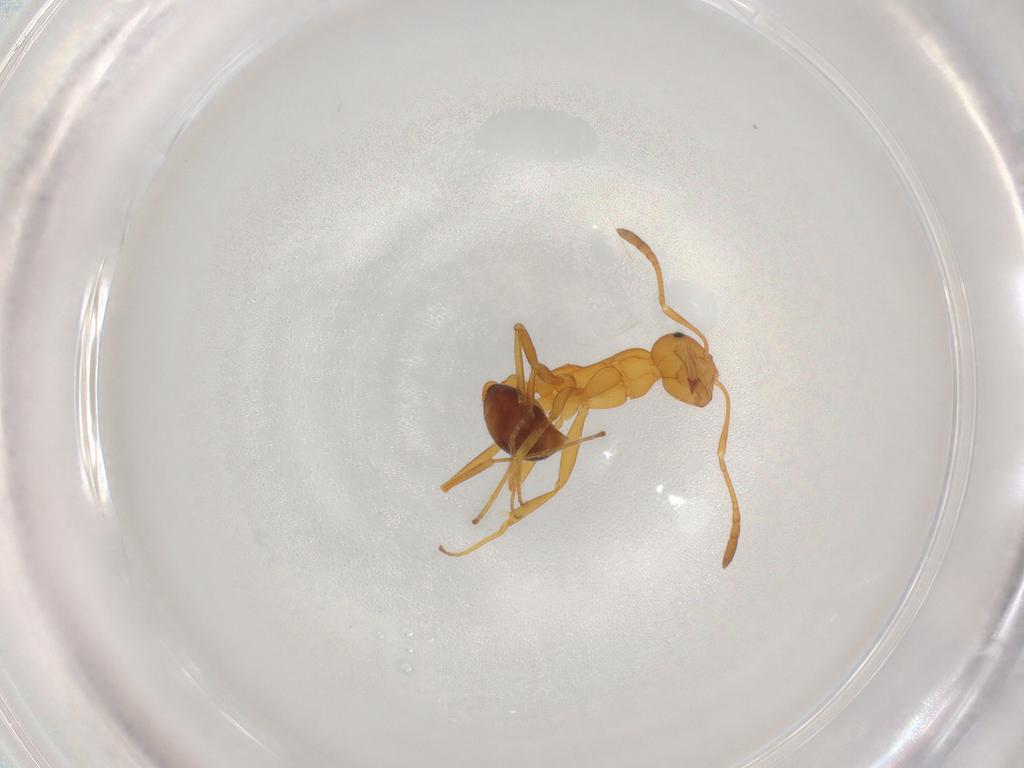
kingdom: Animalia
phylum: Arthropoda
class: Insecta
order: Hymenoptera
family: Formicidae
